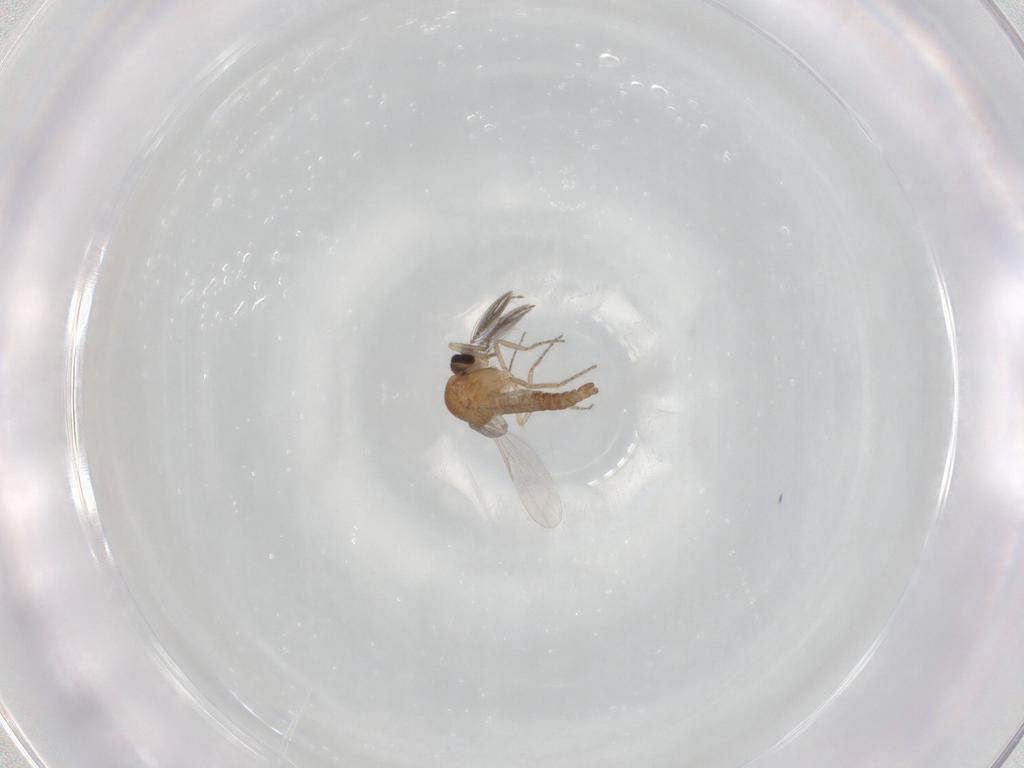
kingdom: Animalia
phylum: Arthropoda
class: Insecta
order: Diptera
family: Ceratopogonidae
